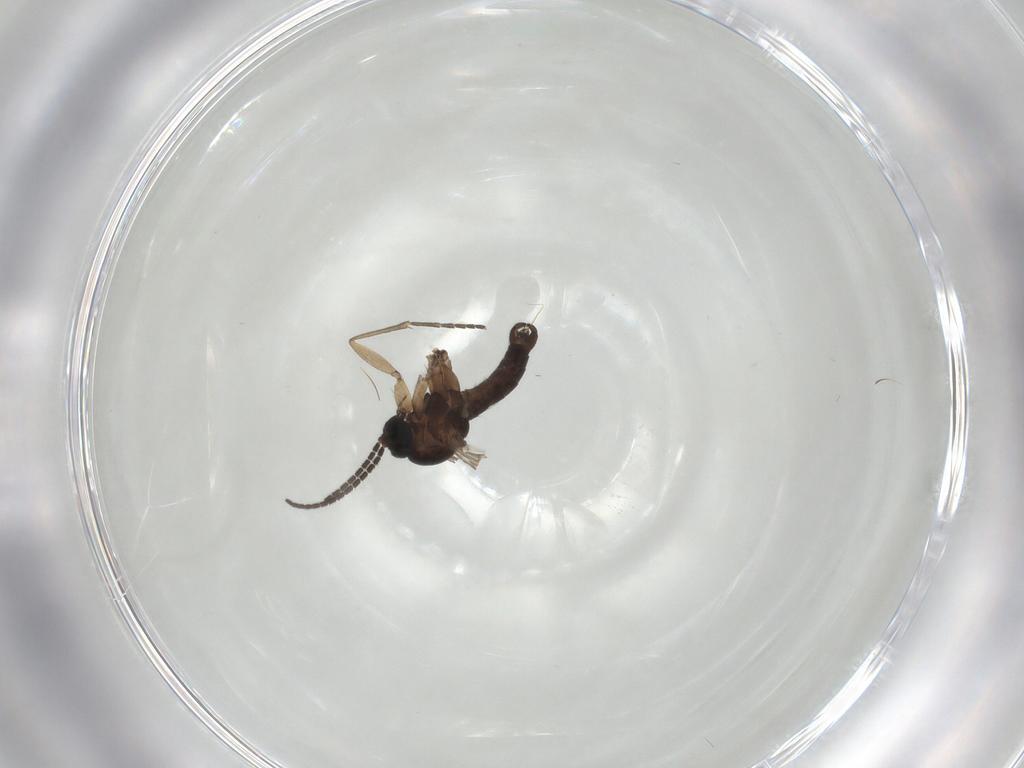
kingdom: Animalia
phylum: Arthropoda
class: Insecta
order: Diptera
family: Sciaridae
